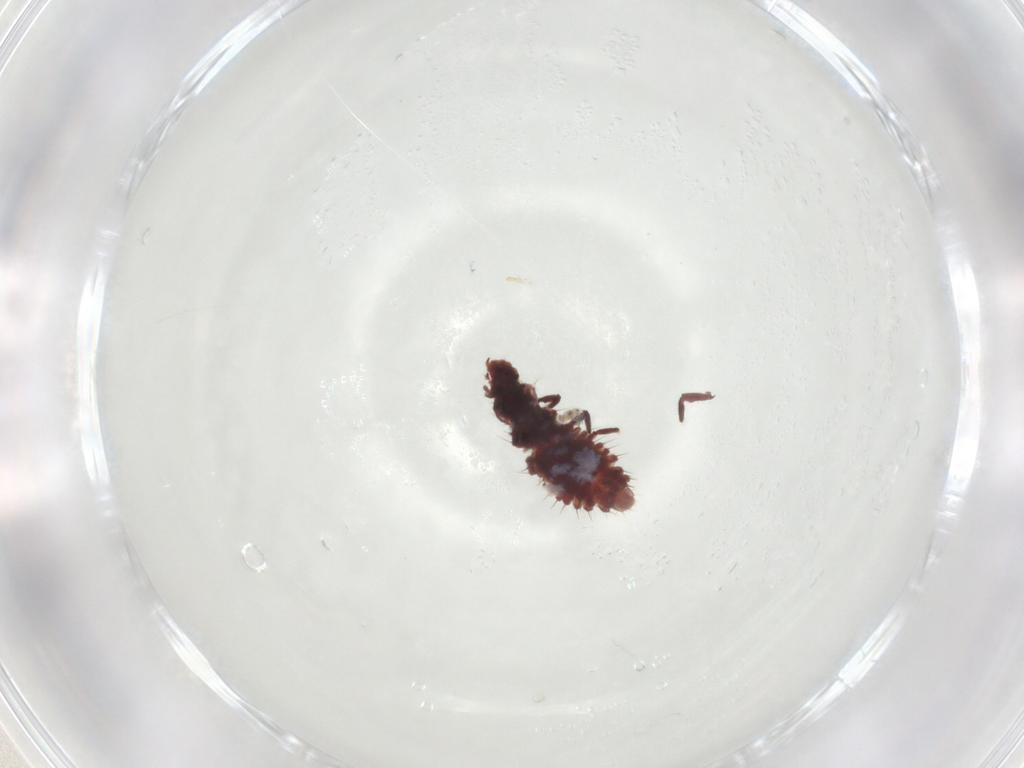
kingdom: Animalia
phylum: Arthropoda
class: Insecta
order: Coleoptera
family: Coccinellidae
